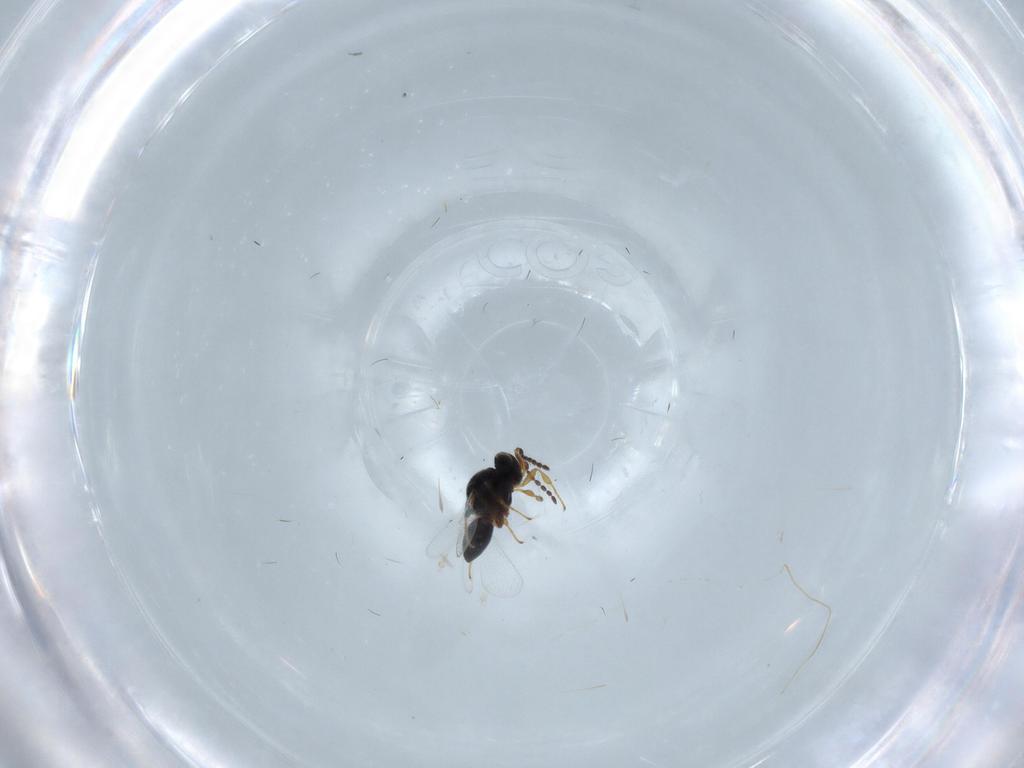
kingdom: Animalia
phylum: Arthropoda
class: Insecta
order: Hymenoptera
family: Platygastridae
